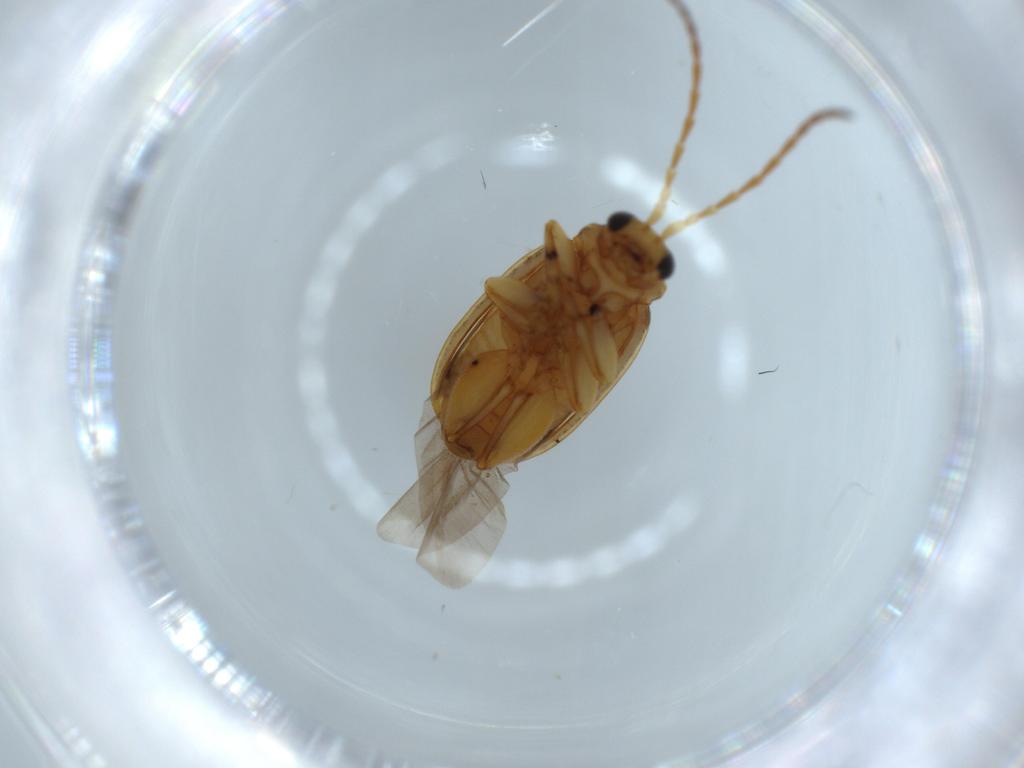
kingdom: Animalia
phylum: Arthropoda
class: Insecta
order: Coleoptera
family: Chrysomelidae
